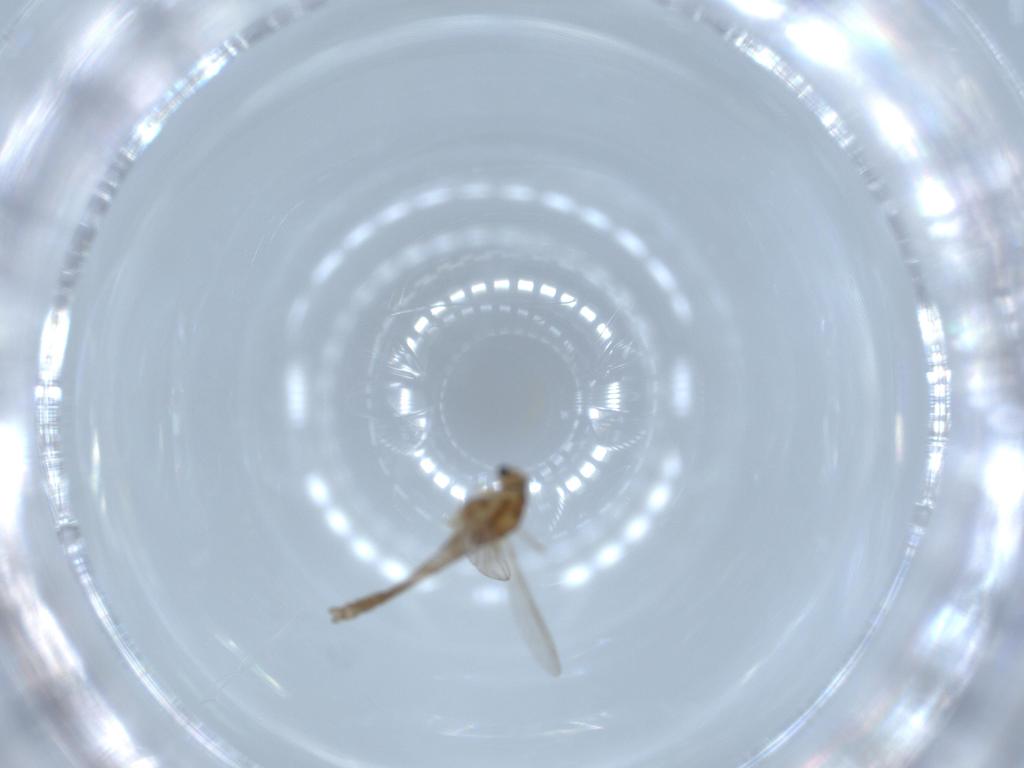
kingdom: Animalia
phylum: Arthropoda
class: Insecta
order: Diptera
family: Chironomidae
